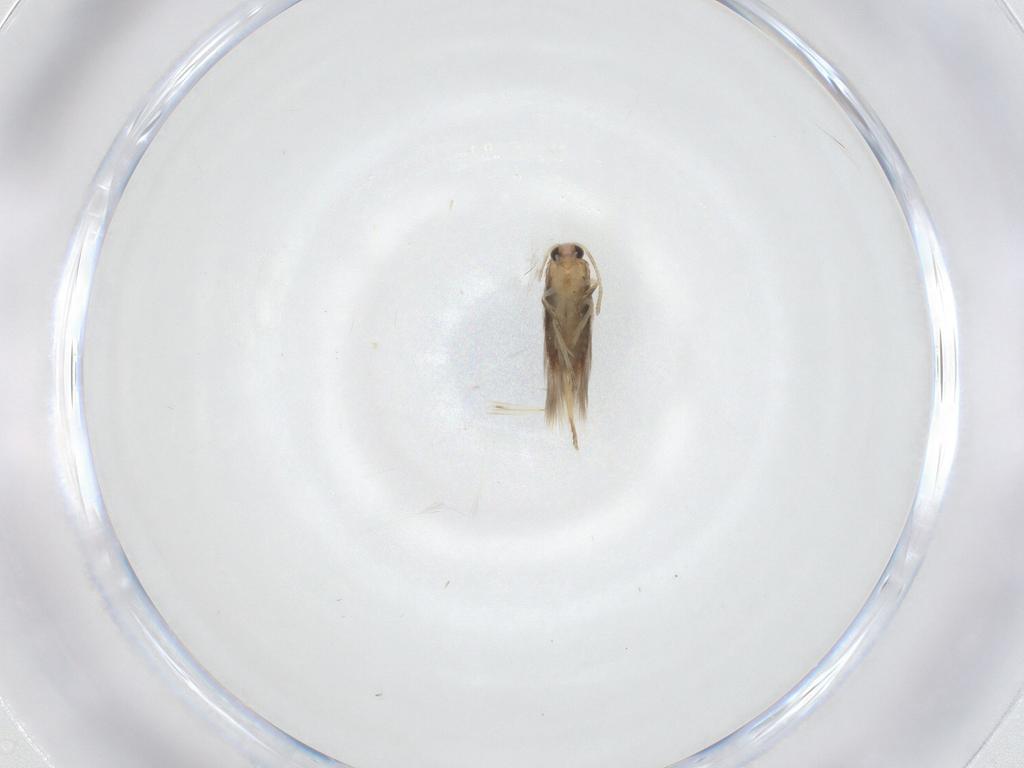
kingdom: Animalia
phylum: Arthropoda
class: Insecta
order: Lepidoptera
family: Nepticulidae
